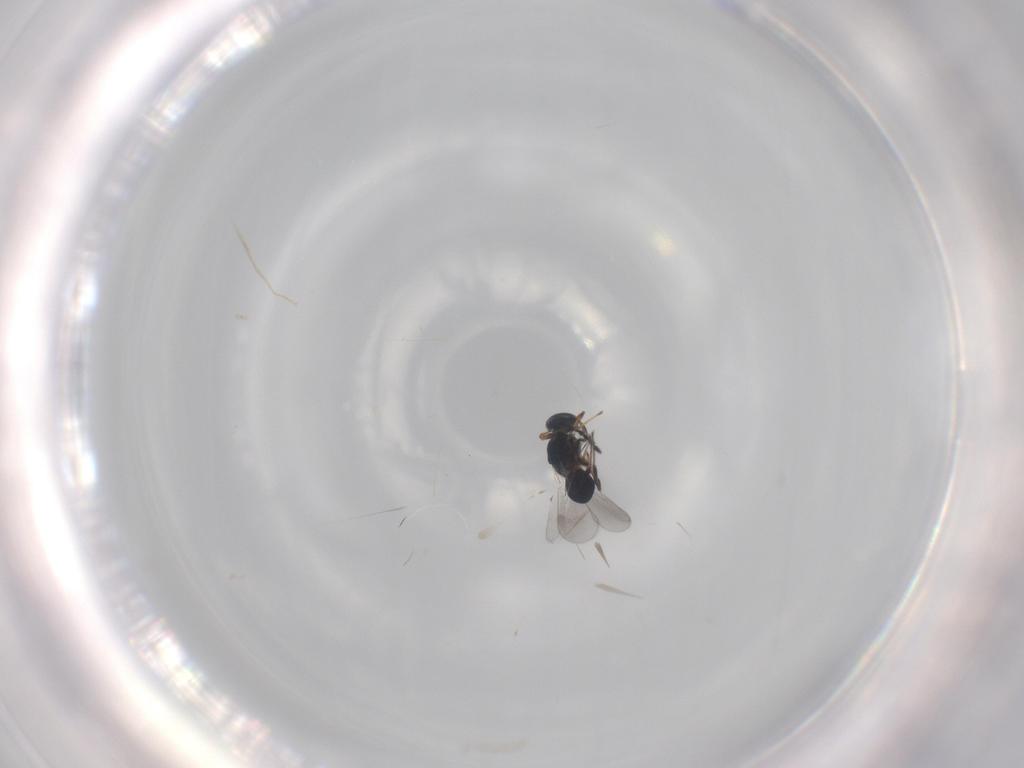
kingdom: Animalia
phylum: Arthropoda
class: Insecta
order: Hymenoptera
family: Platygastridae
